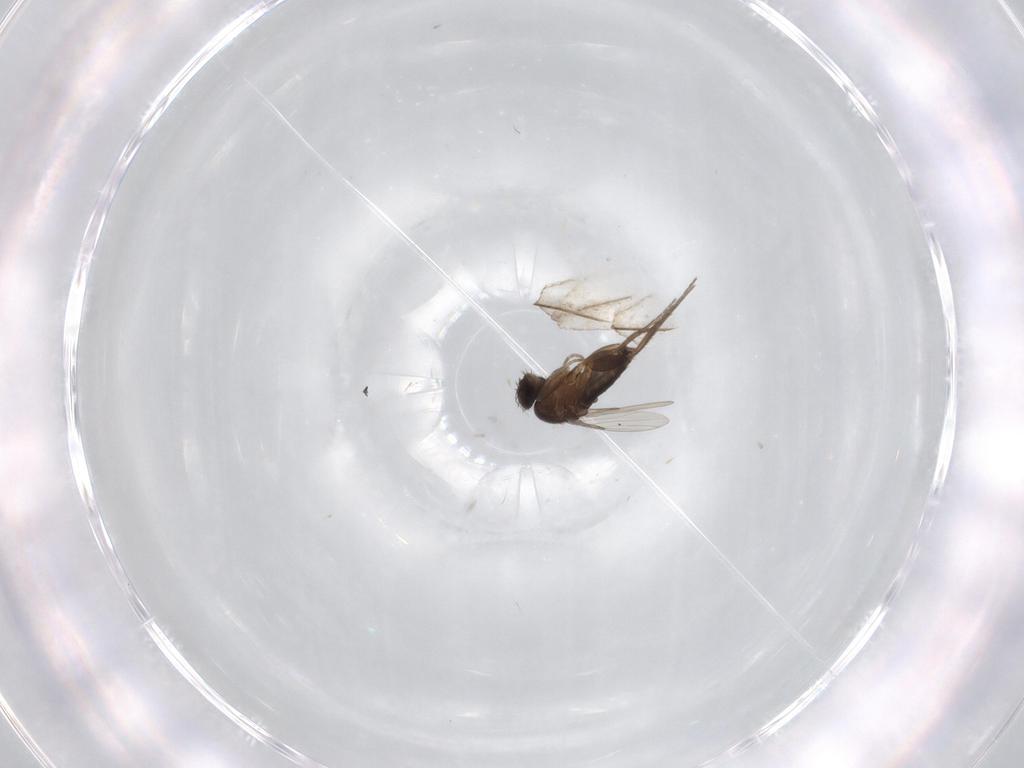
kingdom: Animalia
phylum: Arthropoda
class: Insecta
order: Diptera
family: Phoridae
